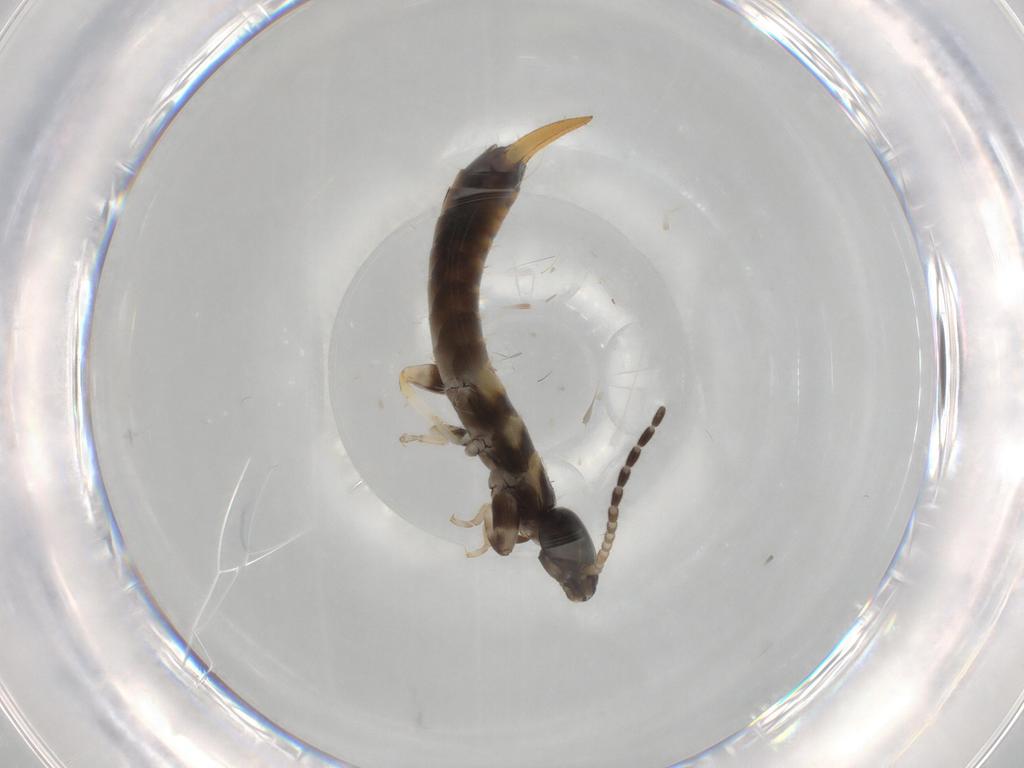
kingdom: Animalia
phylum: Arthropoda
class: Insecta
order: Dermaptera
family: Labiduridae
